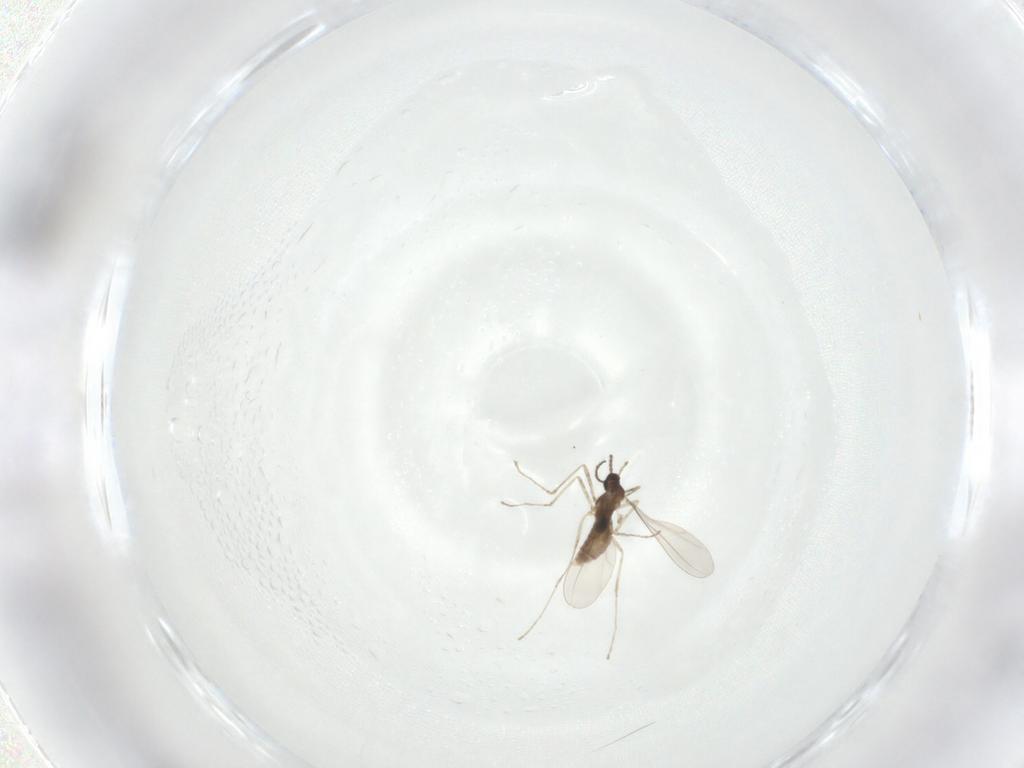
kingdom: Animalia
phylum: Arthropoda
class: Insecta
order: Diptera
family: Dolichopodidae
